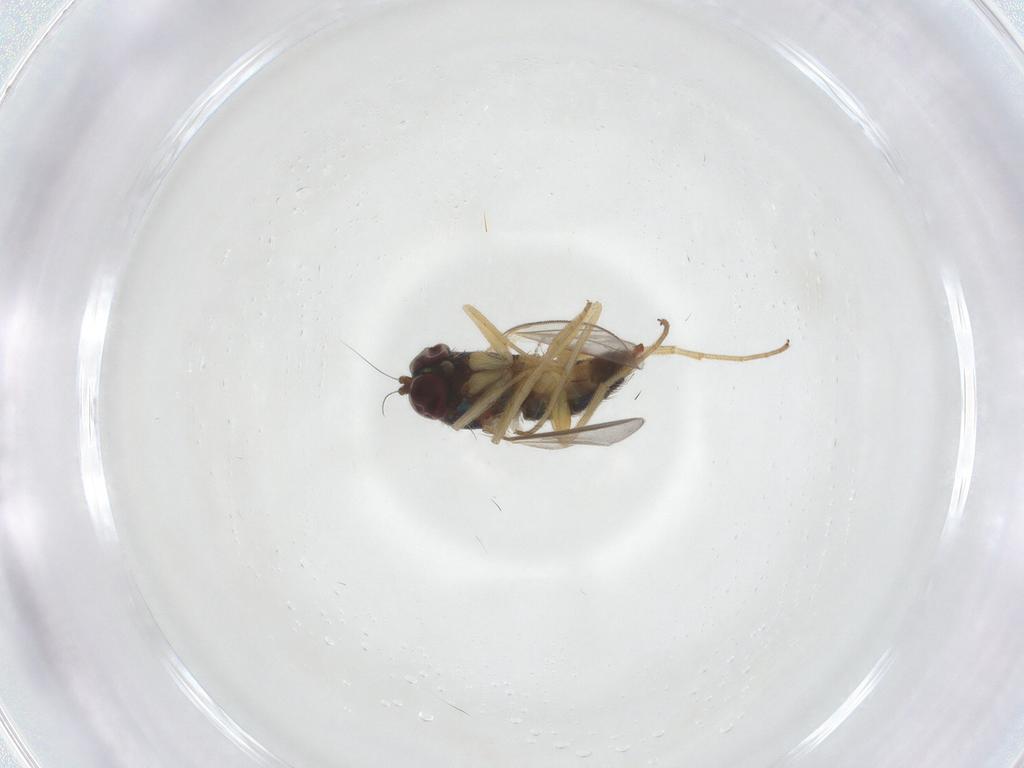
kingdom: Animalia
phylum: Arthropoda
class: Insecta
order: Diptera
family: Dolichopodidae
